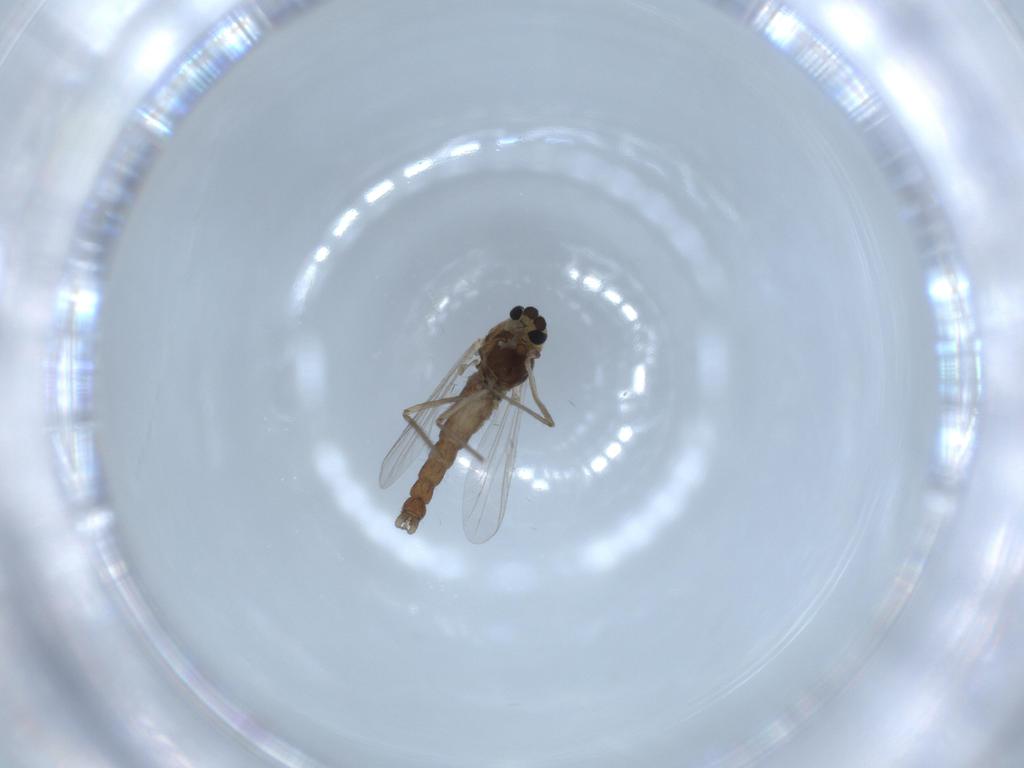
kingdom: Animalia
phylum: Arthropoda
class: Insecta
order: Diptera
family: Chironomidae
